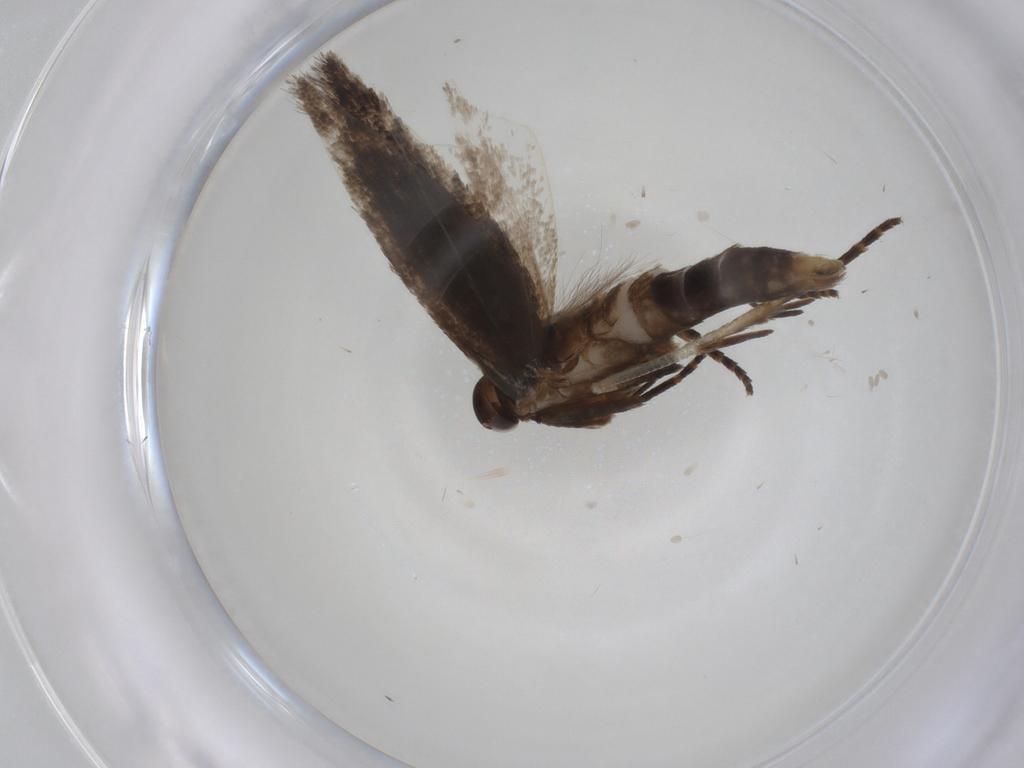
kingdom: Animalia
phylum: Arthropoda
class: Insecta
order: Lepidoptera
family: Gelechiidae
